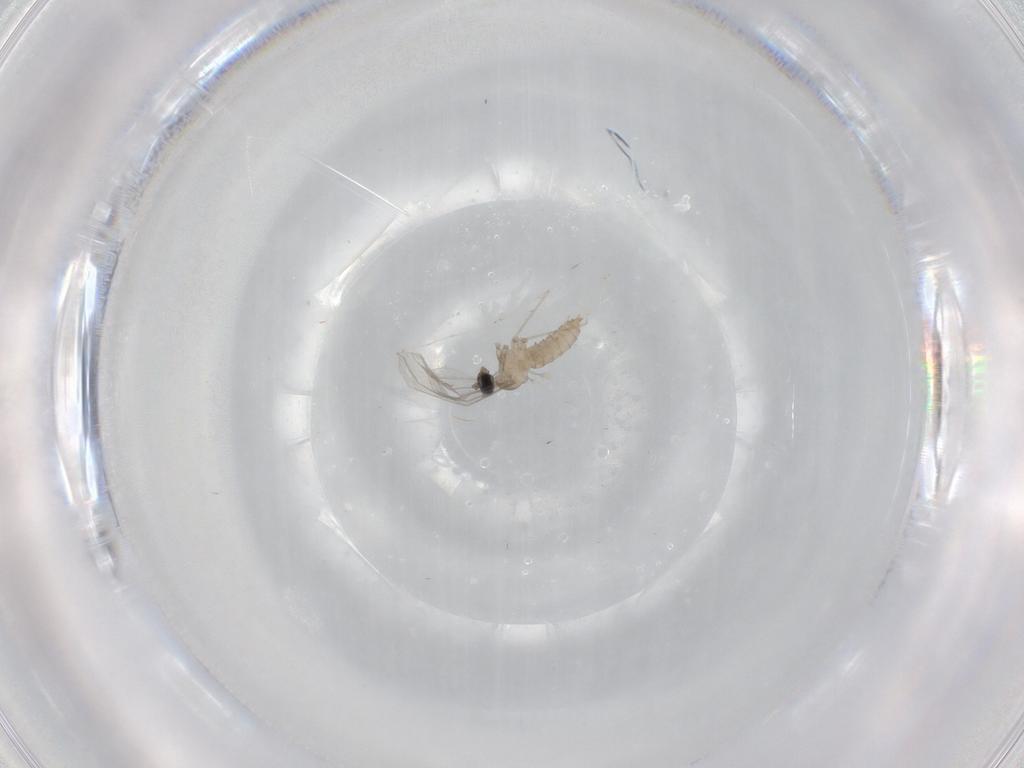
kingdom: Animalia
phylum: Arthropoda
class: Insecta
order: Diptera
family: Cecidomyiidae
